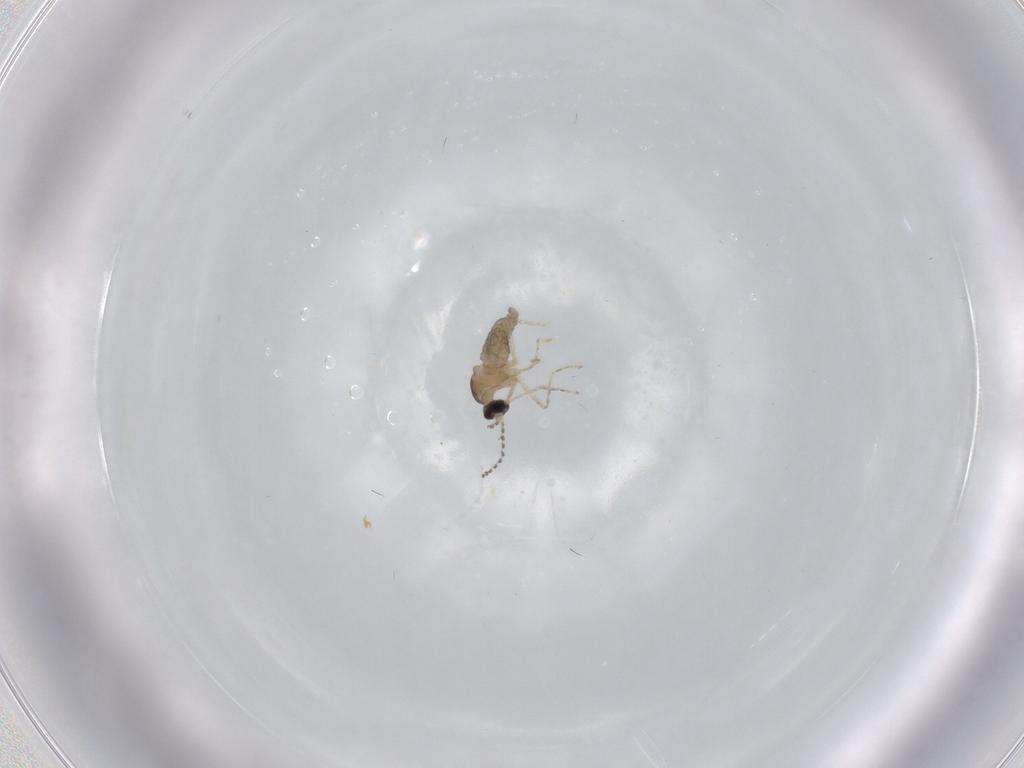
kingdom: Animalia
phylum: Arthropoda
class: Insecta
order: Diptera
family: Cecidomyiidae
